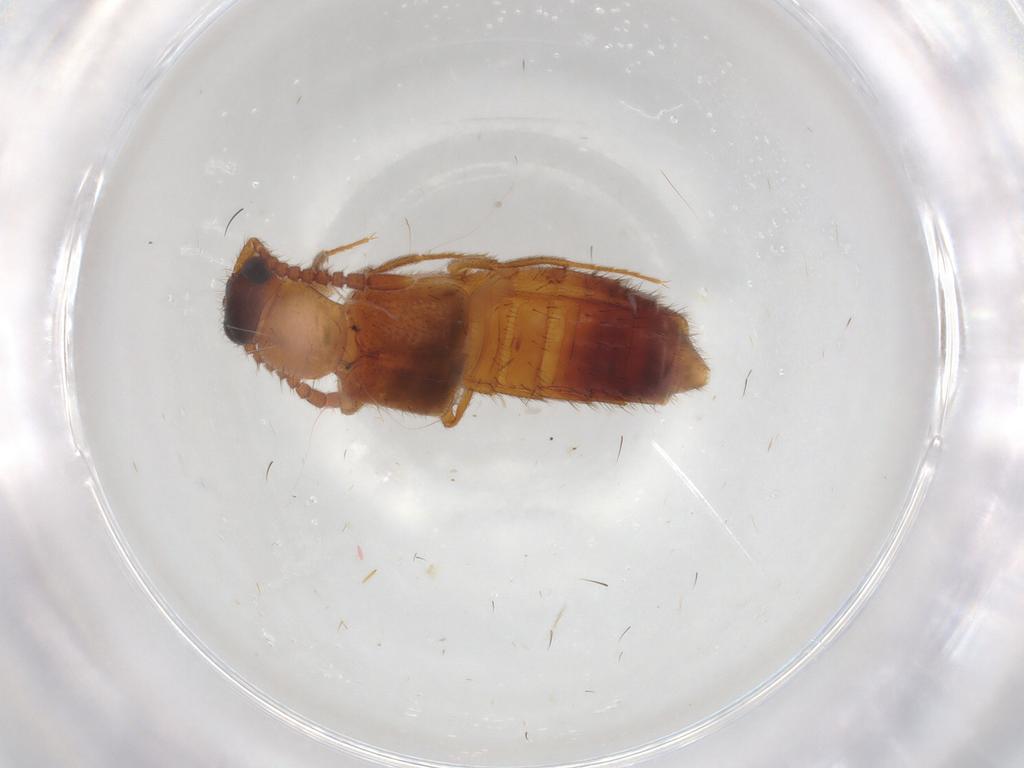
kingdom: Animalia
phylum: Arthropoda
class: Insecta
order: Coleoptera
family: Staphylinidae
